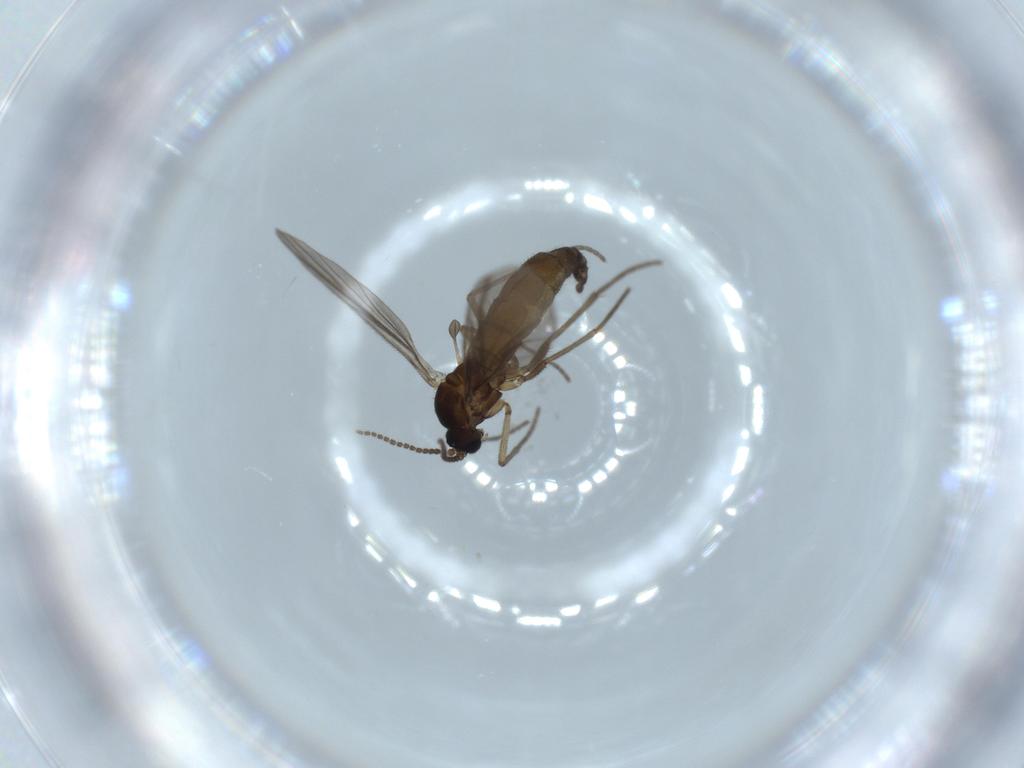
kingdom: Animalia
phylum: Arthropoda
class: Insecta
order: Diptera
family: Sciaridae
